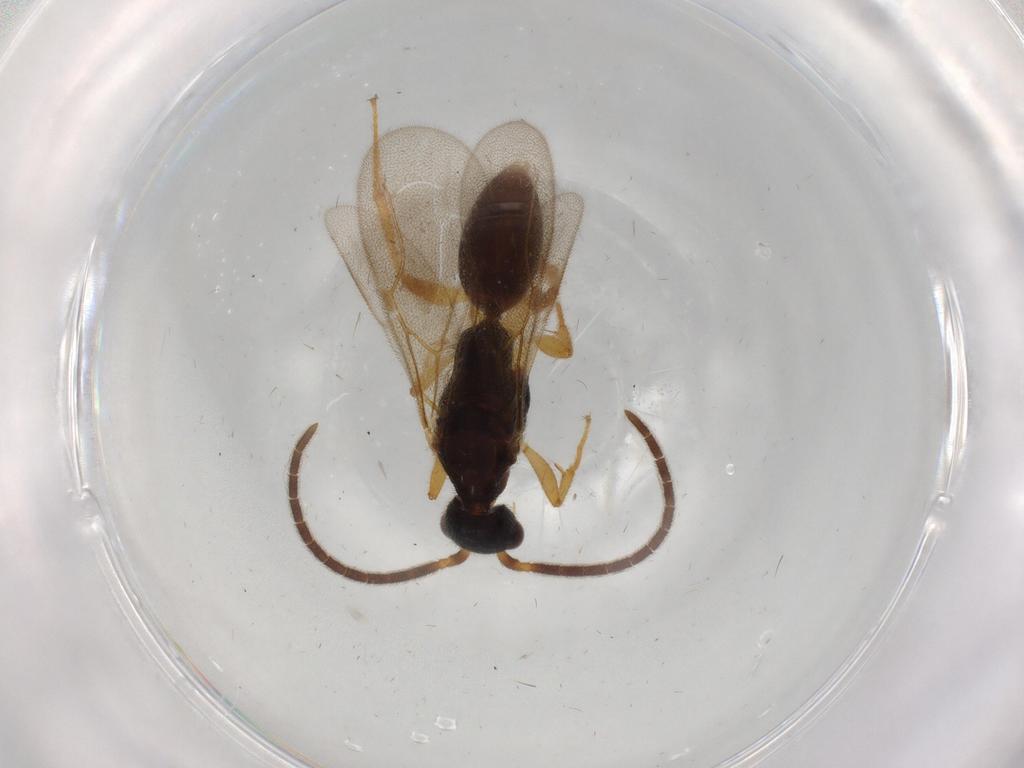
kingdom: Animalia
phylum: Arthropoda
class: Insecta
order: Hymenoptera
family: Bethylidae
